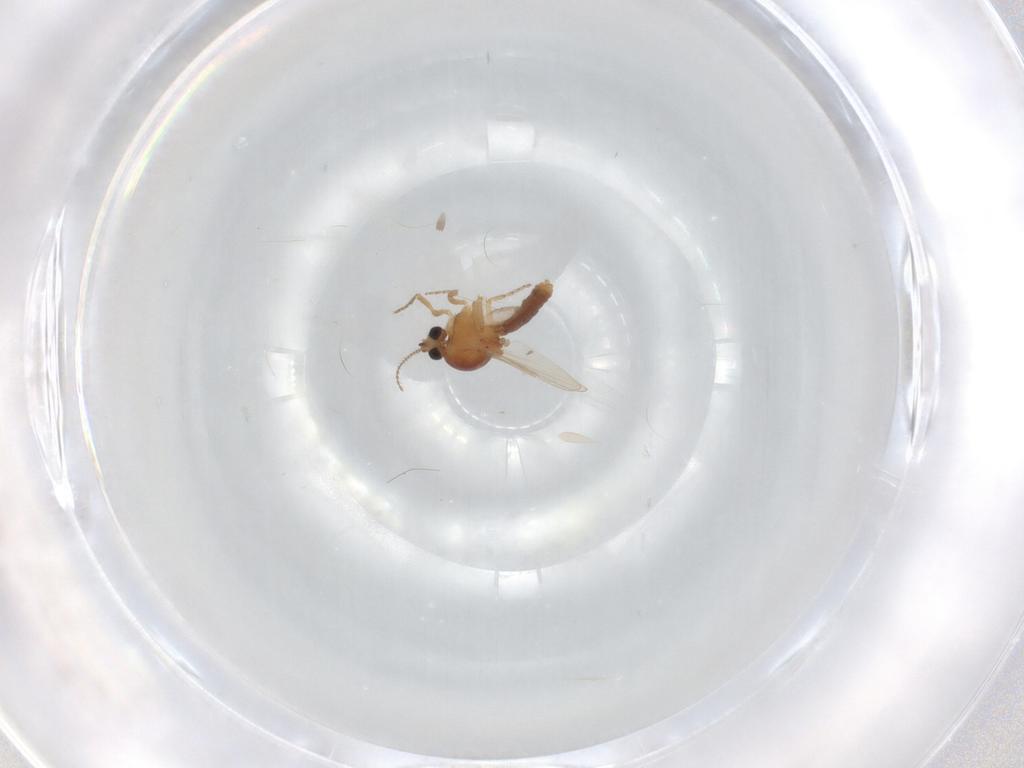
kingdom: Animalia
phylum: Arthropoda
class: Insecta
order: Diptera
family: Ceratopogonidae
